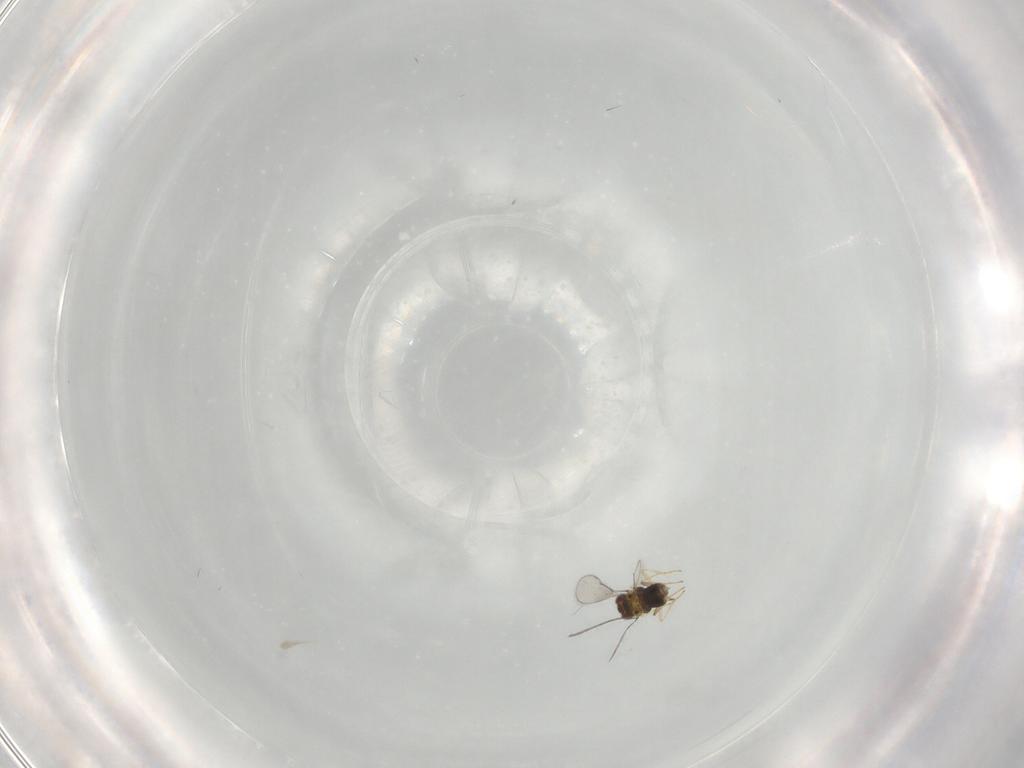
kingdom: Animalia
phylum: Arthropoda
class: Insecta
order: Hymenoptera
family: Aphelinidae
